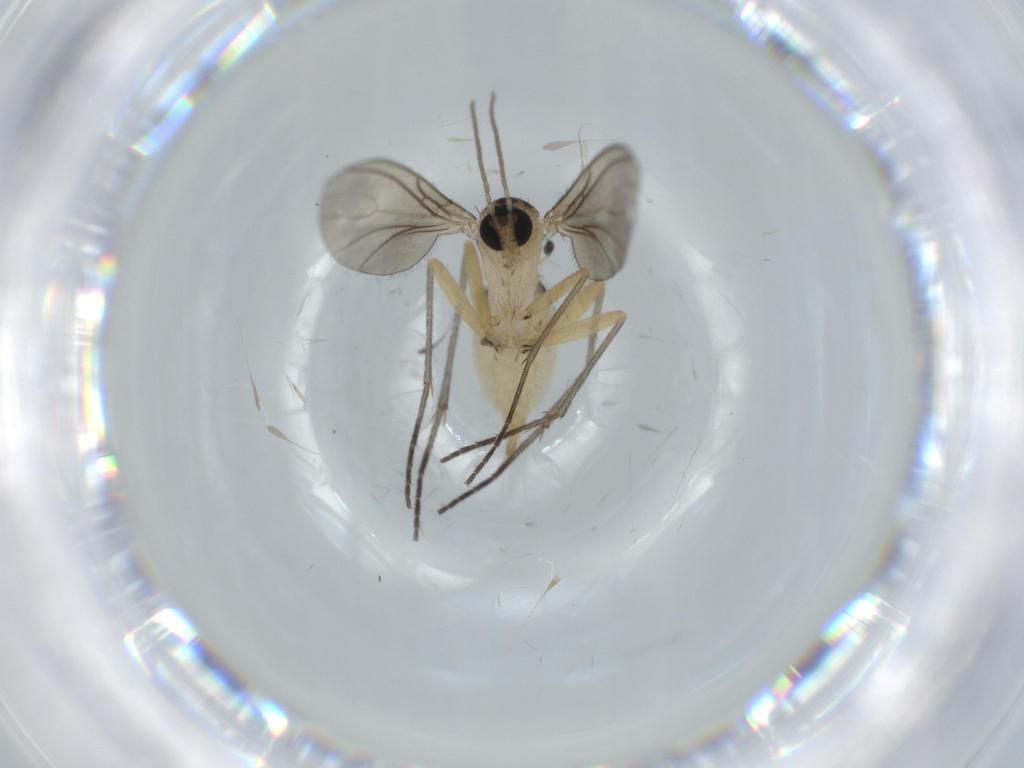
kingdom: Animalia
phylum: Arthropoda
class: Insecta
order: Diptera
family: Sciaridae
